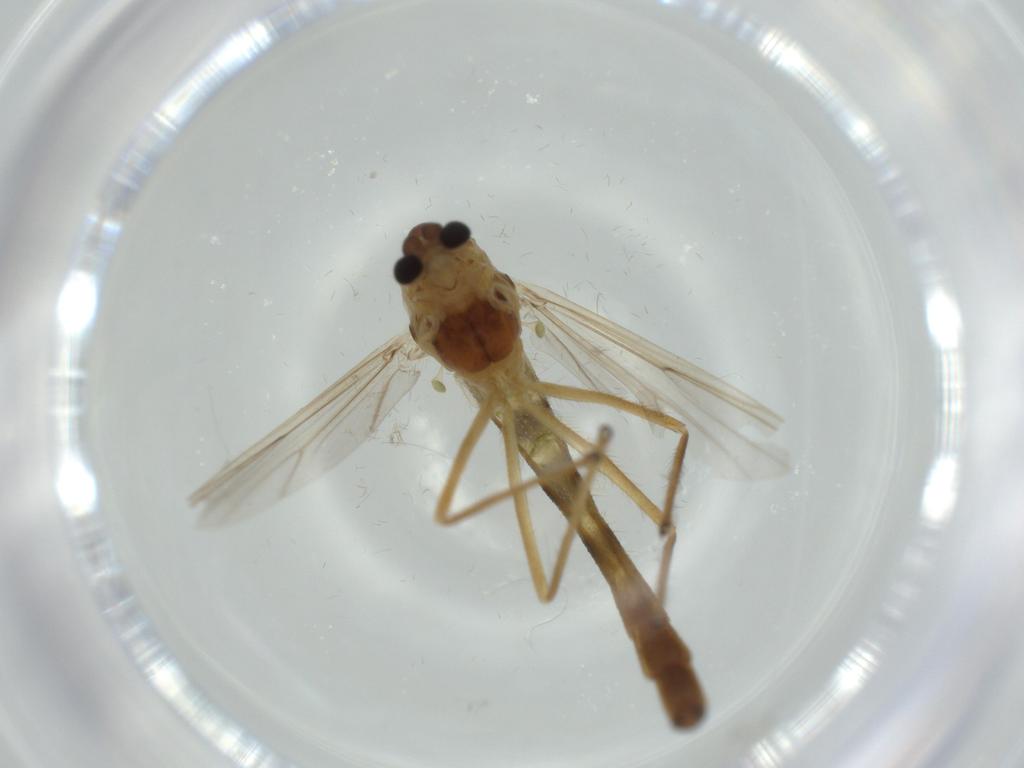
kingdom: Animalia
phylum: Arthropoda
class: Insecta
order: Diptera
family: Chironomidae
